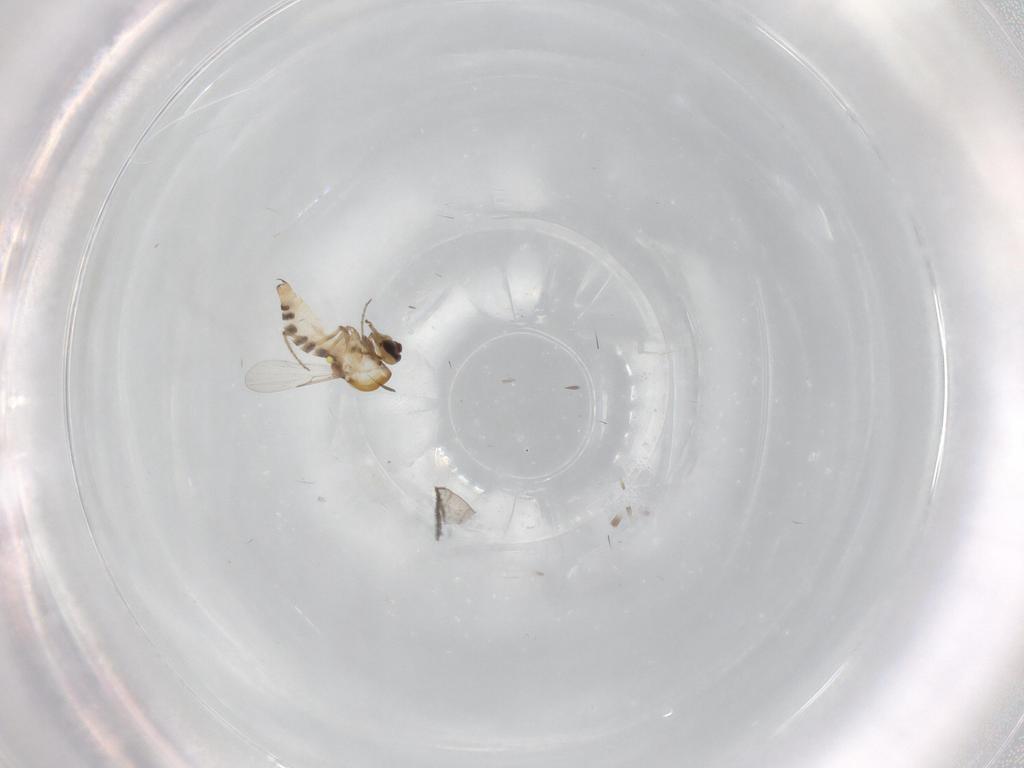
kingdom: Animalia
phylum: Arthropoda
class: Insecta
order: Diptera
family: Ceratopogonidae
